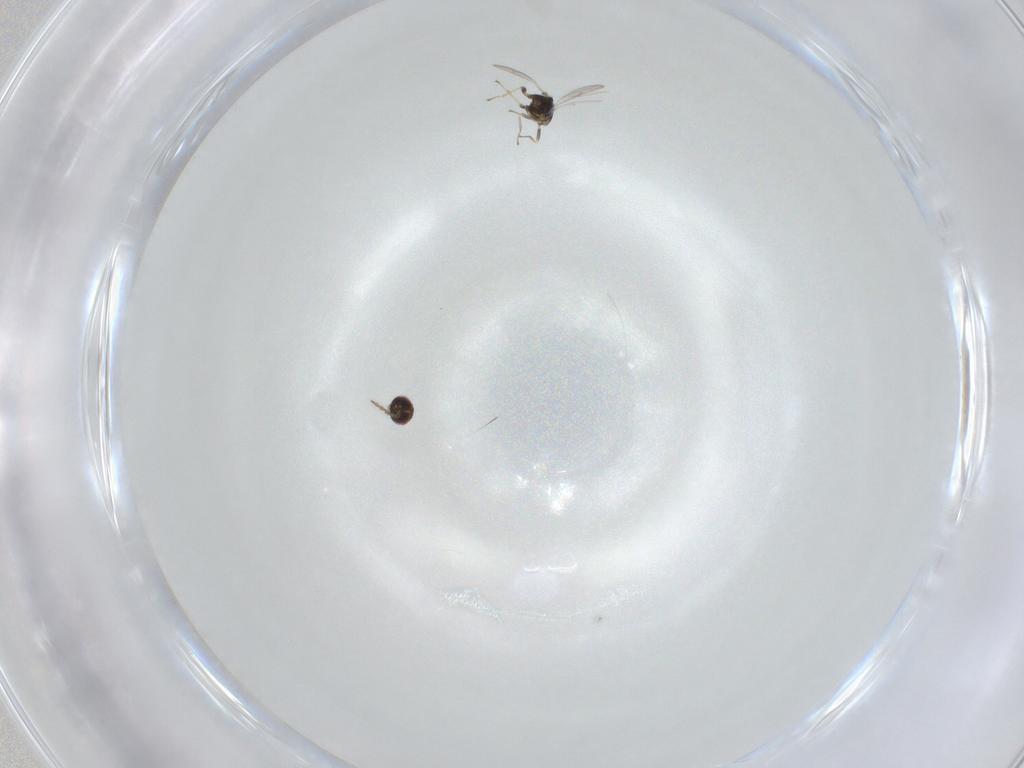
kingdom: Animalia
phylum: Arthropoda
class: Insecta
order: Hymenoptera
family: Eulophidae
